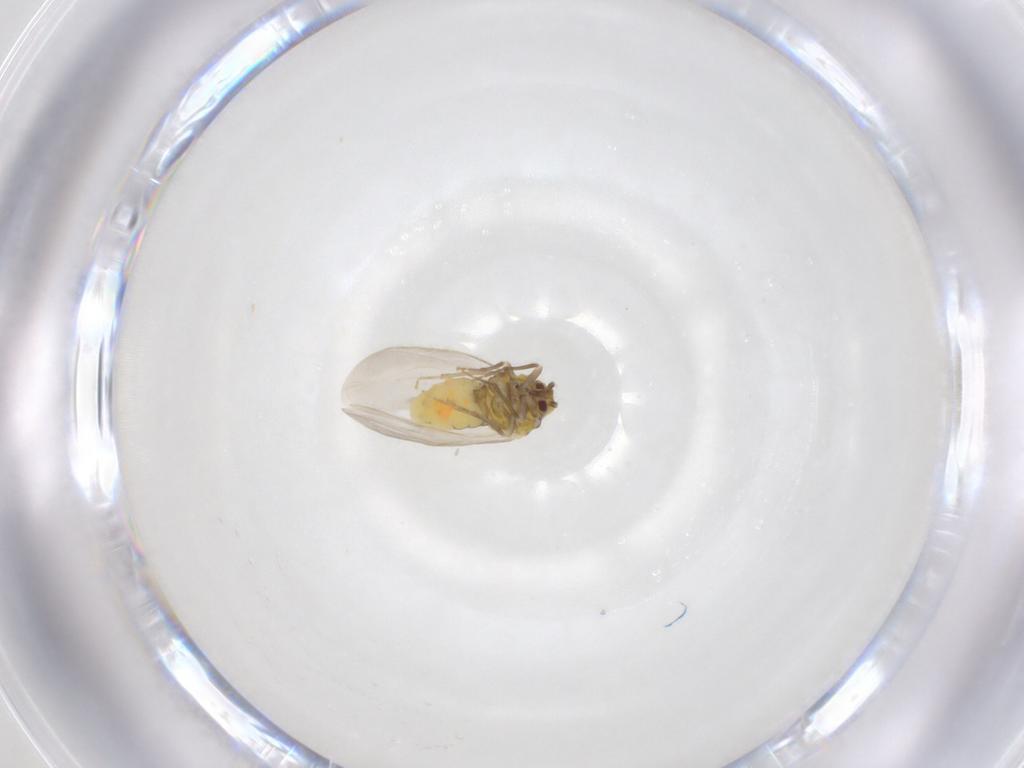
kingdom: Animalia
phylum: Arthropoda
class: Insecta
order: Hemiptera
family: Aleyrodidae
